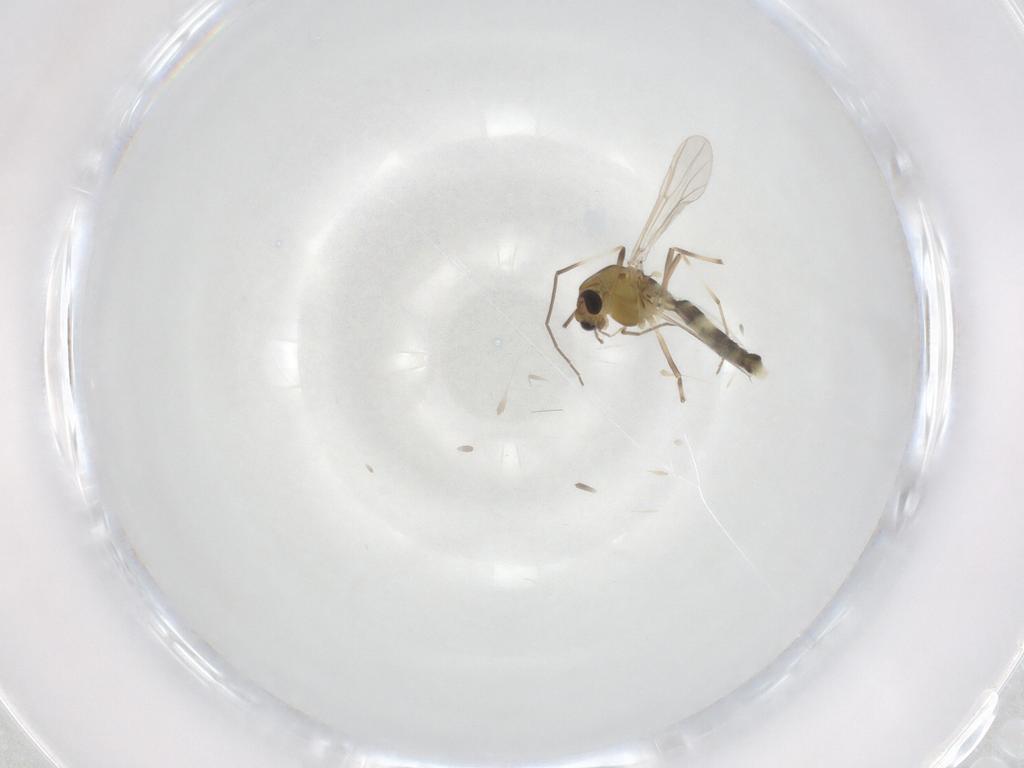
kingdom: Animalia
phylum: Arthropoda
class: Insecta
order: Diptera
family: Chironomidae
